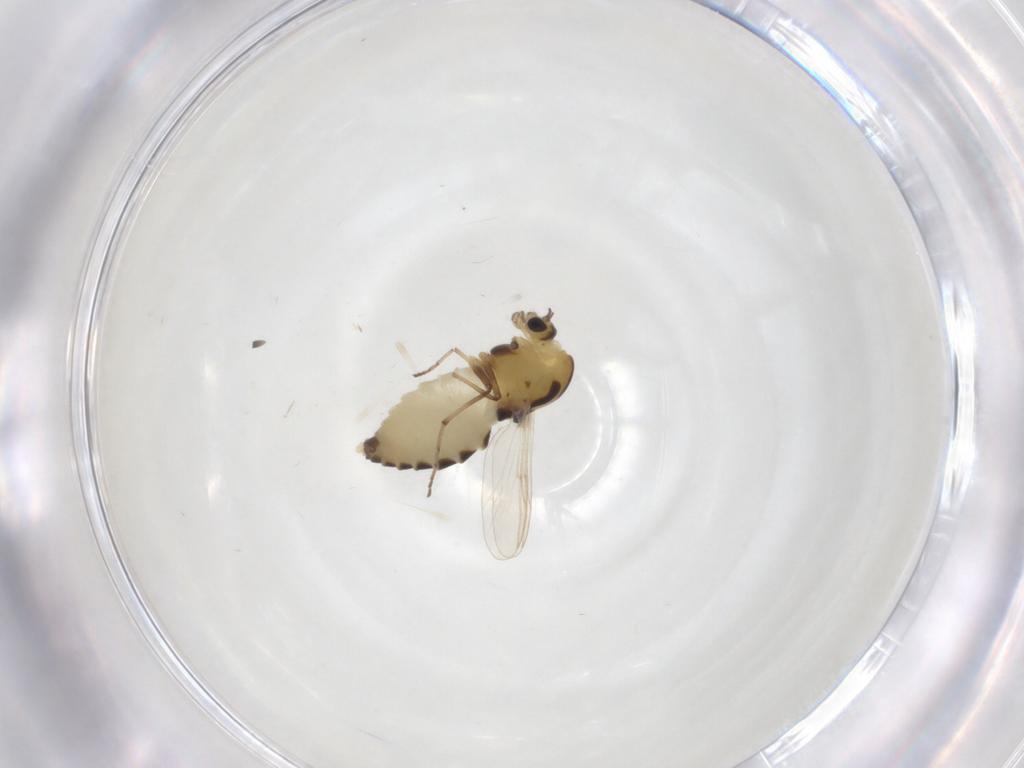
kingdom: Animalia
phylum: Arthropoda
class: Insecta
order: Diptera
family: Chironomidae
